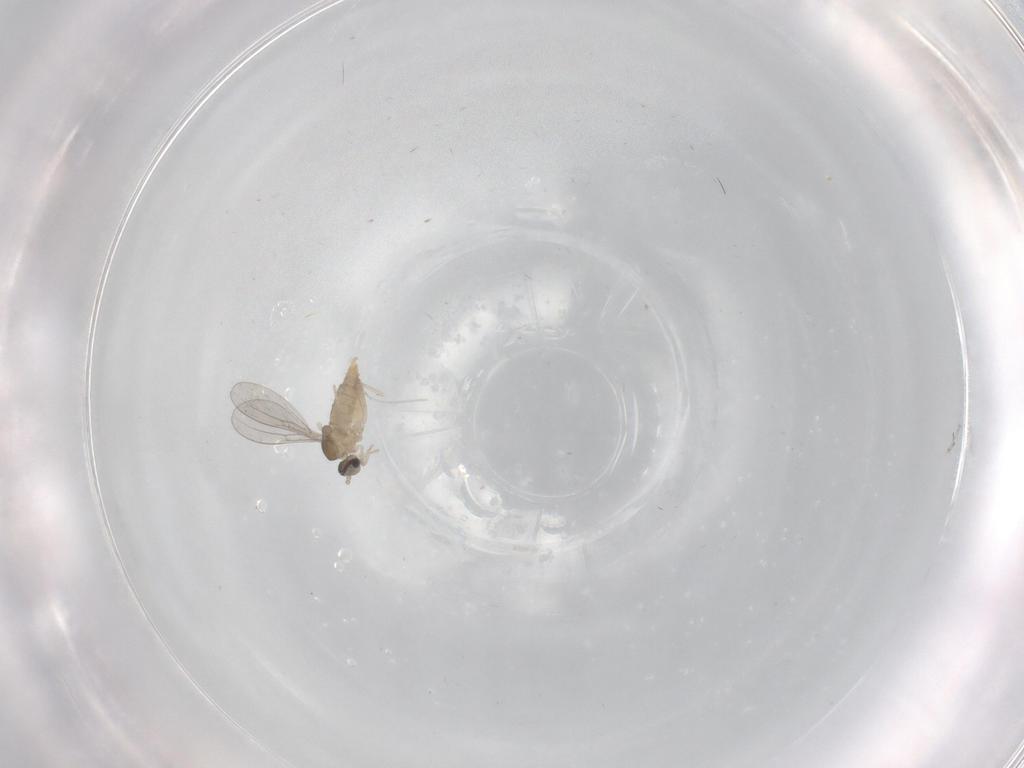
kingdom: Animalia
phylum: Arthropoda
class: Insecta
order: Diptera
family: Cecidomyiidae
